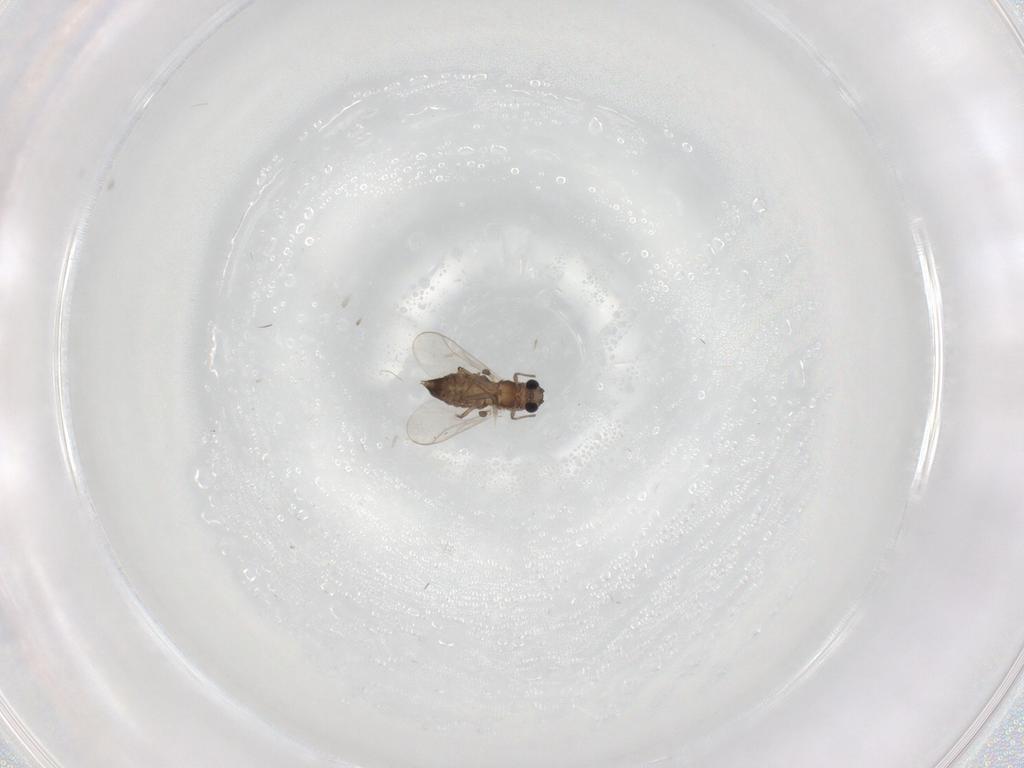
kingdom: Animalia
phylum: Arthropoda
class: Insecta
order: Diptera
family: Chironomidae
